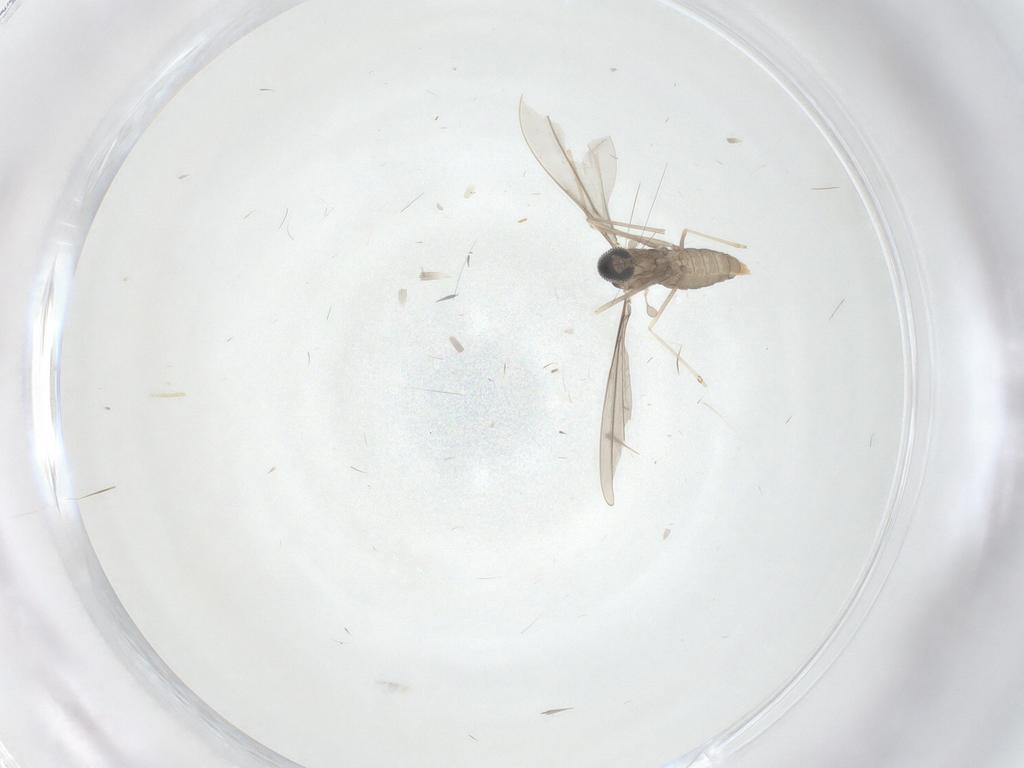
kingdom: Animalia
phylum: Arthropoda
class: Insecta
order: Diptera
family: Cecidomyiidae
